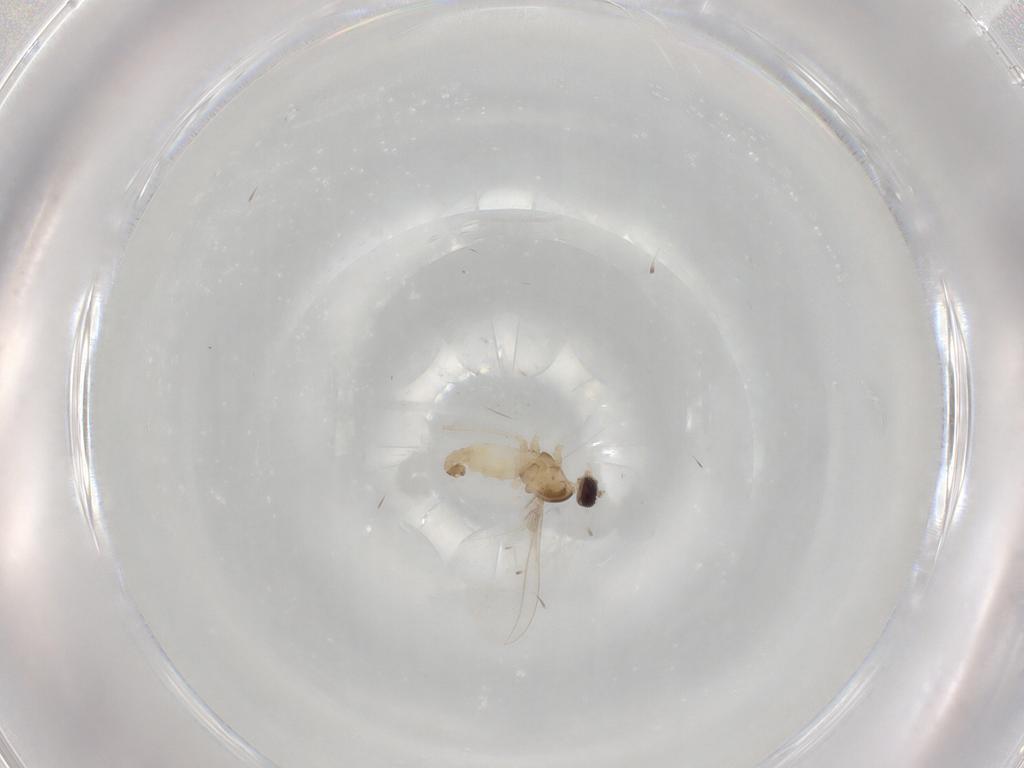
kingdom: Animalia
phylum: Arthropoda
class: Insecta
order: Diptera
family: Cecidomyiidae
